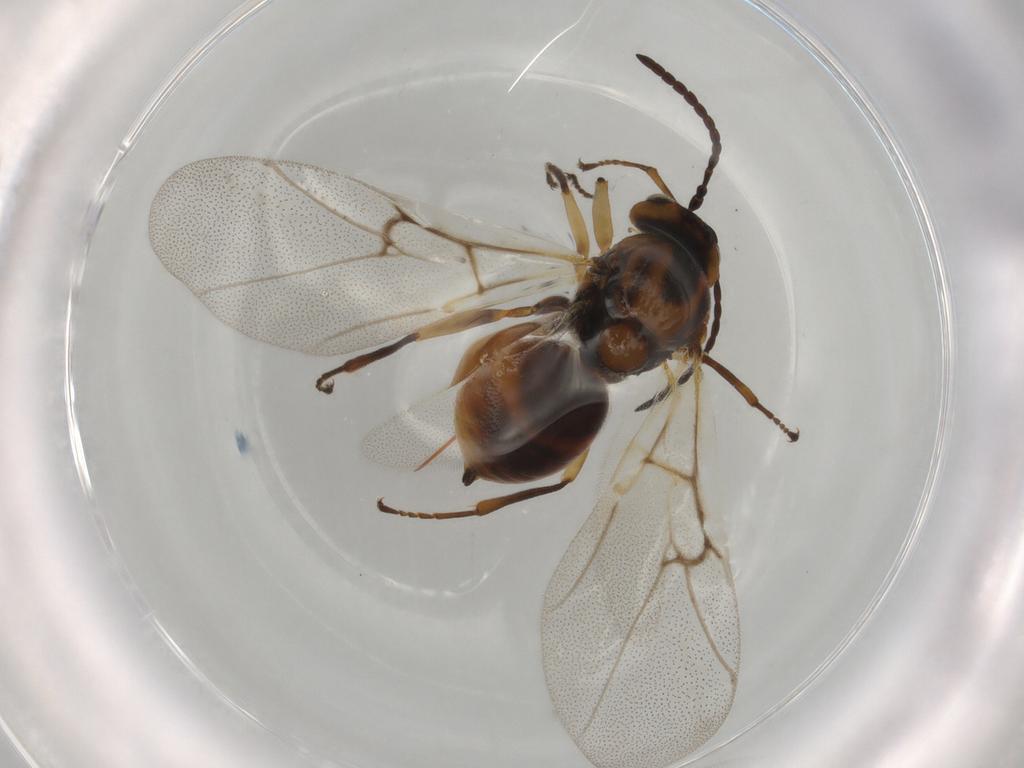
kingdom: Animalia
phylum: Arthropoda
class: Insecta
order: Hymenoptera
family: Cynipidae
